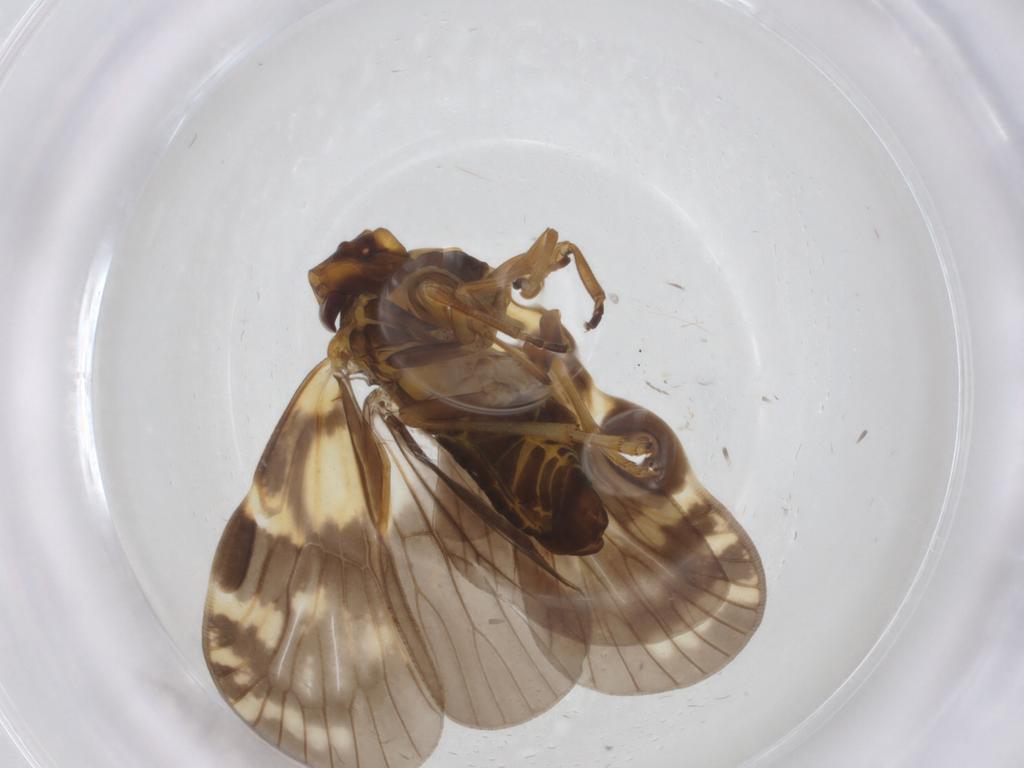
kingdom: Animalia
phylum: Arthropoda
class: Insecta
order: Hemiptera
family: Cixiidae
